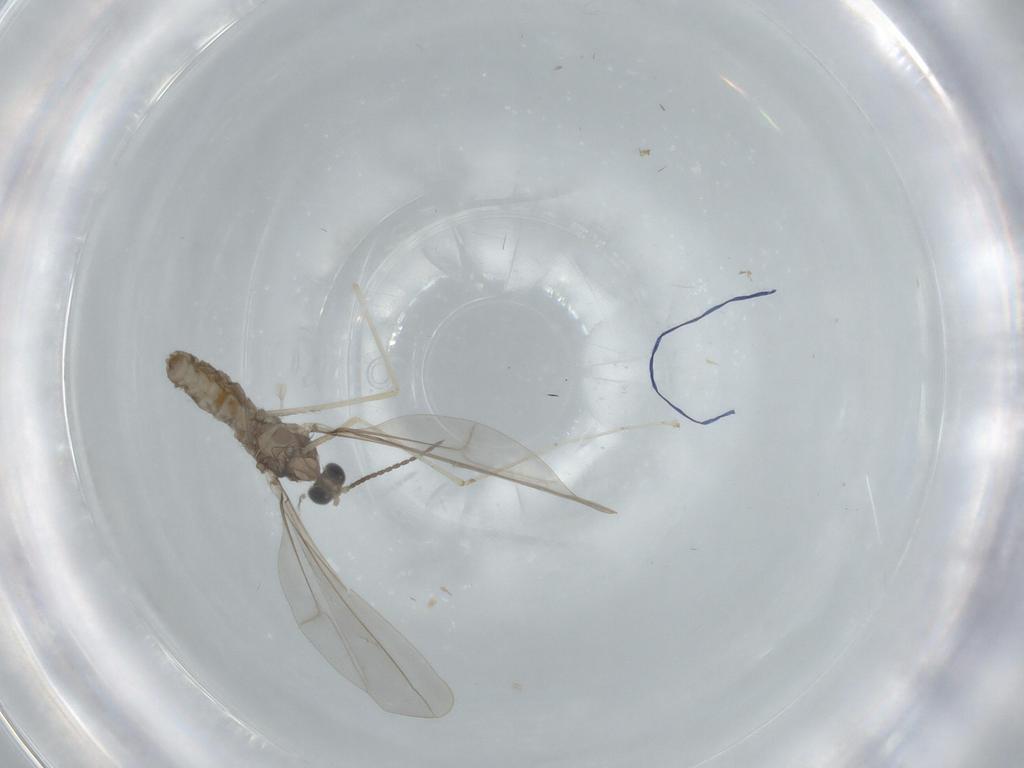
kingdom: Animalia
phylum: Arthropoda
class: Insecta
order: Diptera
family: Cecidomyiidae
